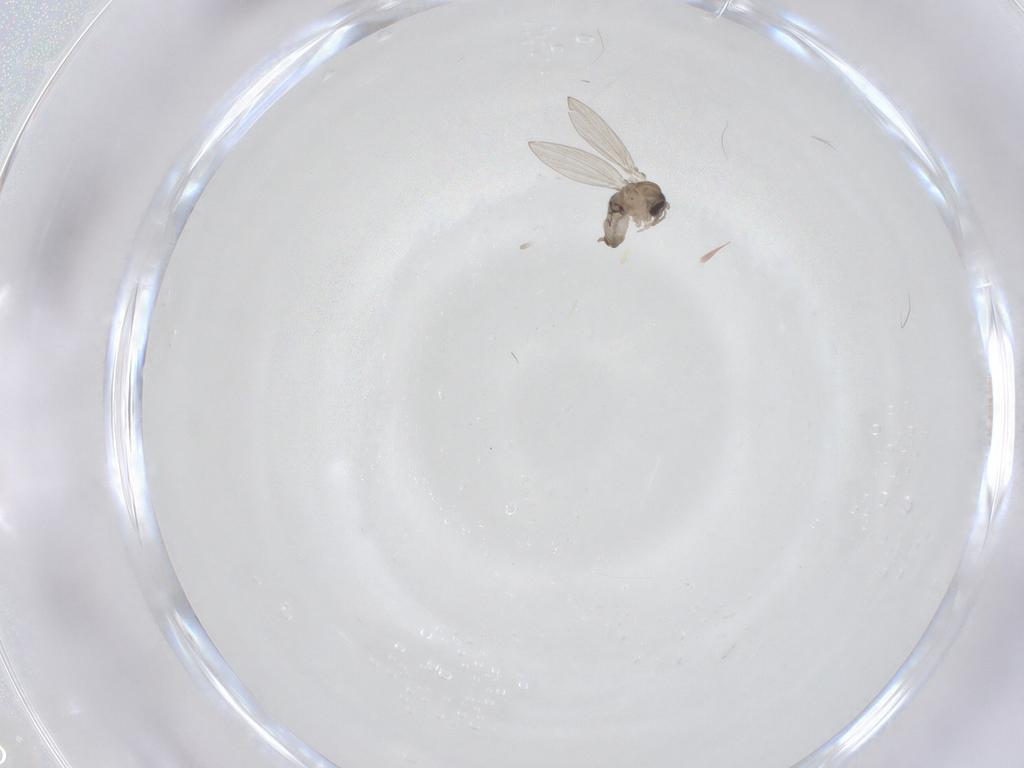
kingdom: Animalia
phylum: Arthropoda
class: Insecta
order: Diptera
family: Psychodidae
